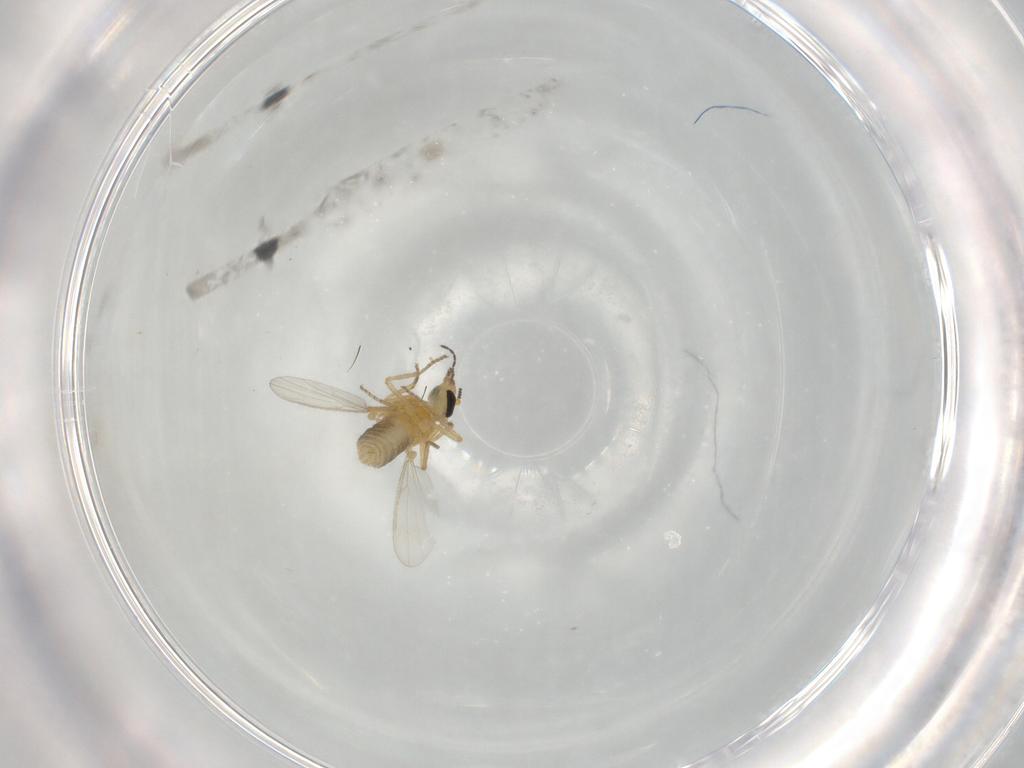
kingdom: Animalia
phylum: Arthropoda
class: Insecta
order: Diptera
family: Ceratopogonidae
